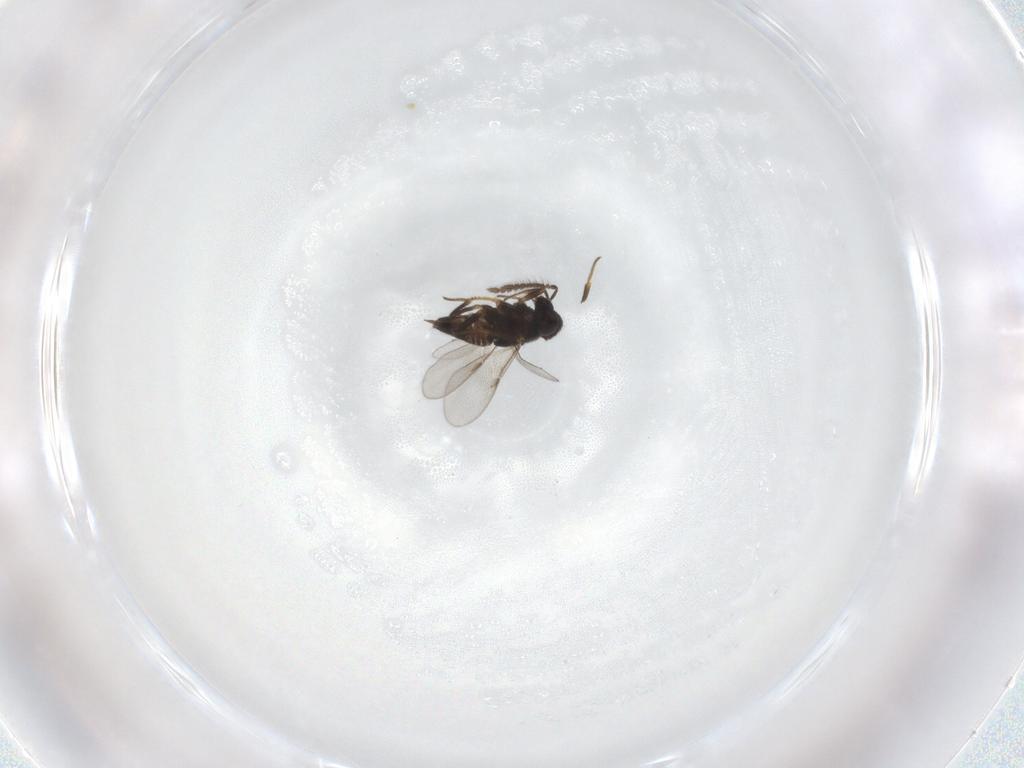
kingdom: Animalia
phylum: Arthropoda
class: Insecta
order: Hymenoptera
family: Encyrtidae
